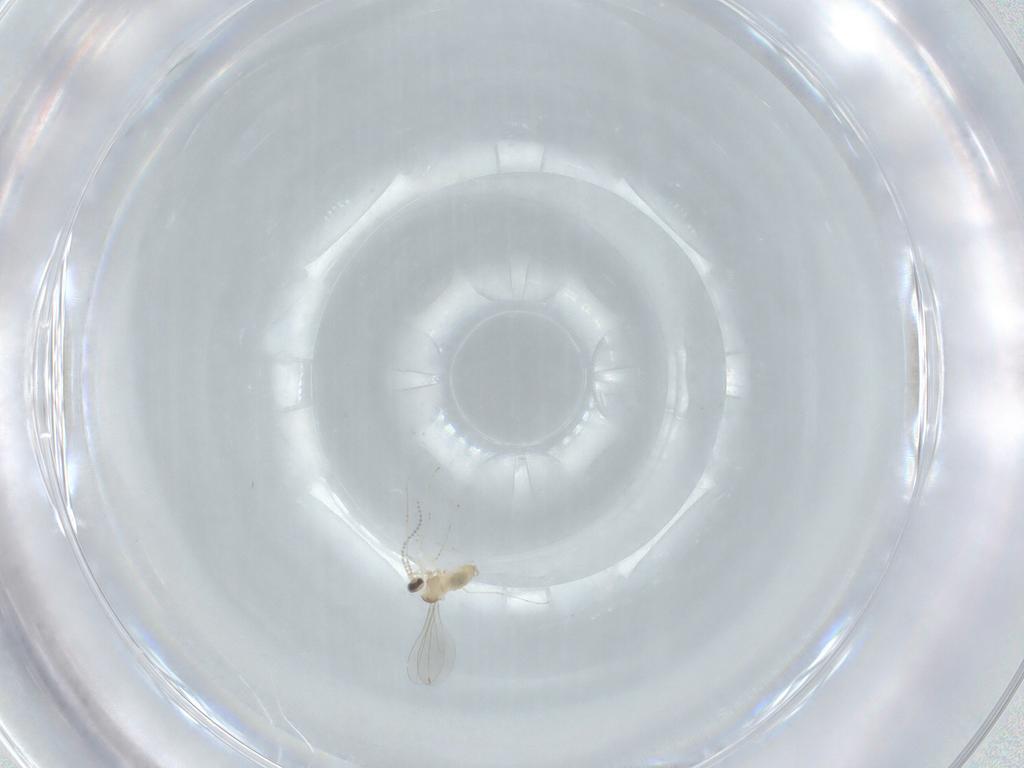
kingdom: Animalia
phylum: Arthropoda
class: Insecta
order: Diptera
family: Cecidomyiidae
